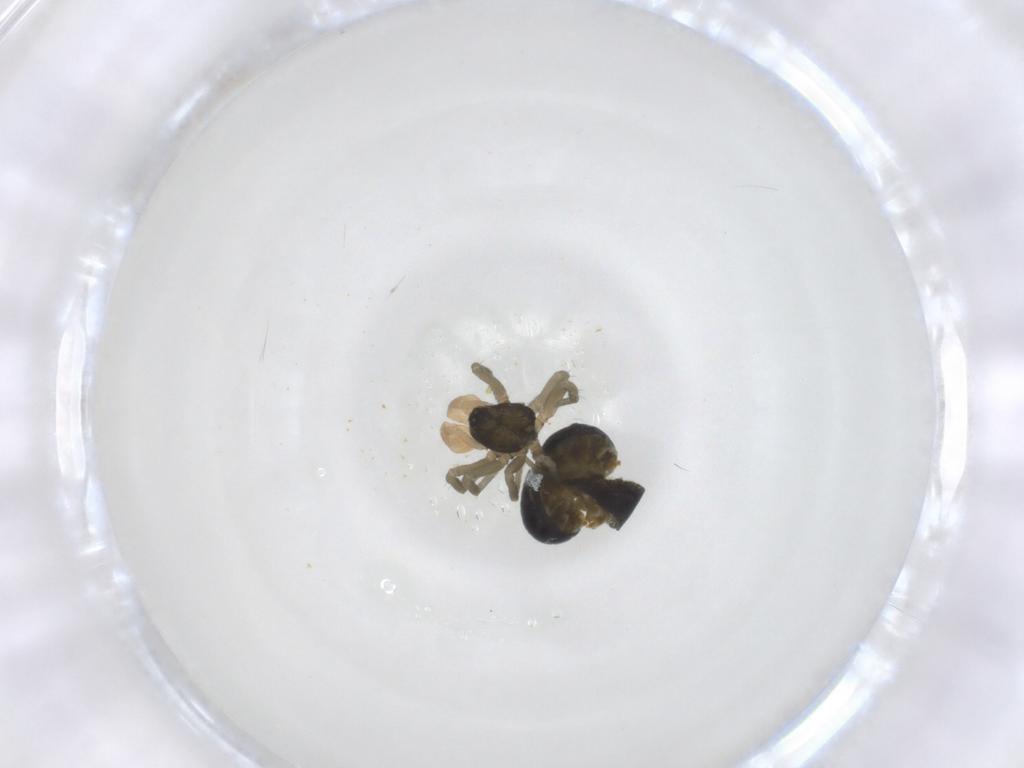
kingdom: Animalia
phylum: Arthropoda
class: Arachnida
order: Araneae
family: Linyphiidae
